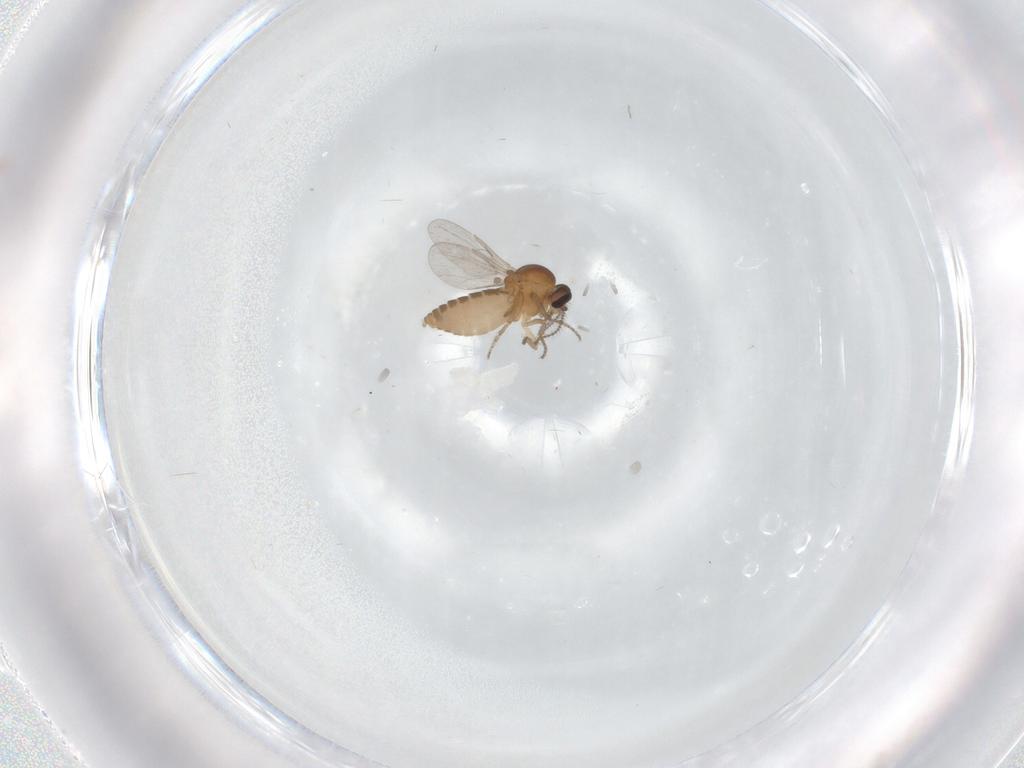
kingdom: Animalia
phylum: Arthropoda
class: Insecta
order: Diptera
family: Ceratopogonidae
